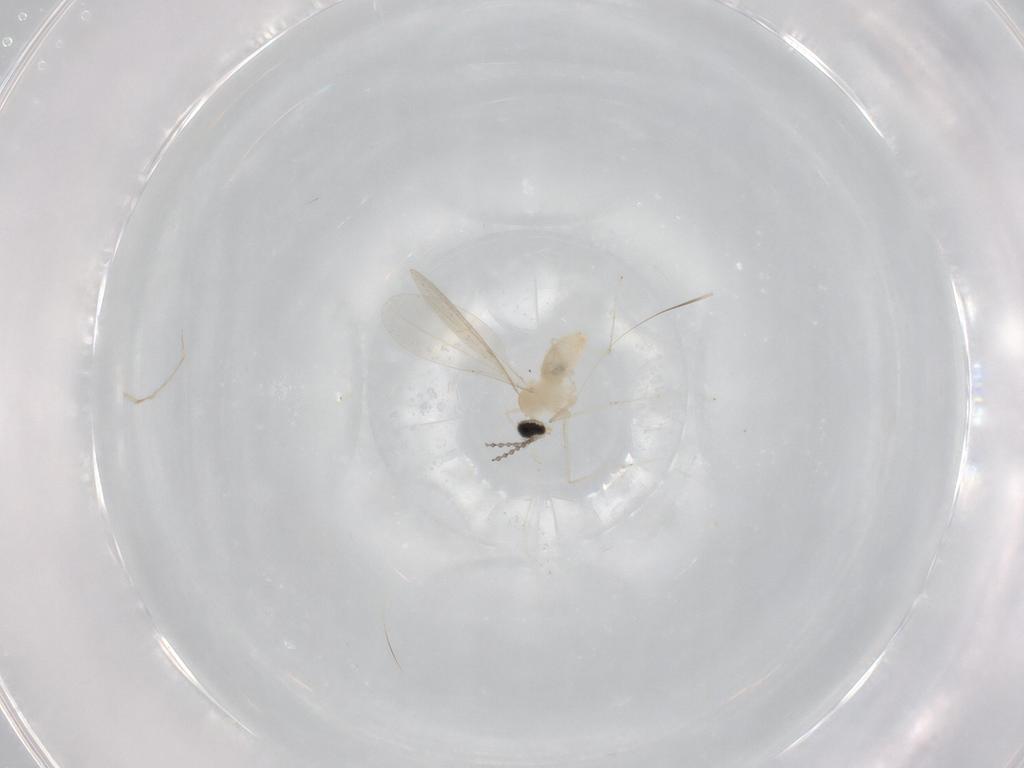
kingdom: Animalia
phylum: Arthropoda
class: Insecta
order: Diptera
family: Sciaridae
